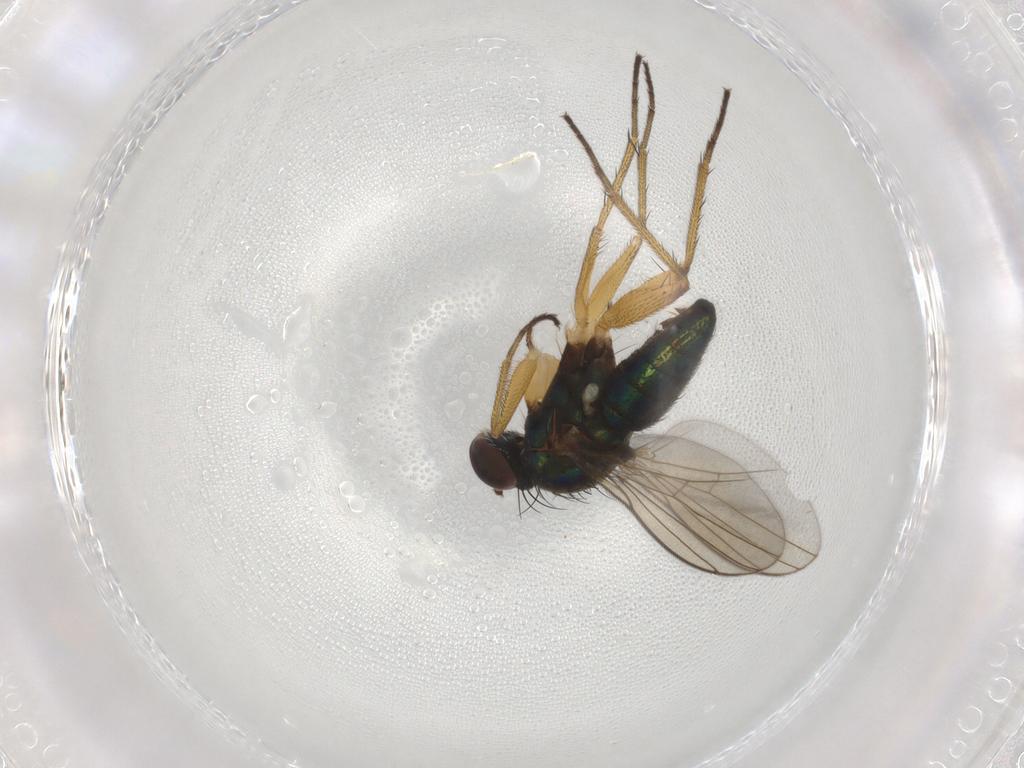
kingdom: Animalia
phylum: Arthropoda
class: Insecta
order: Diptera
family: Dolichopodidae
